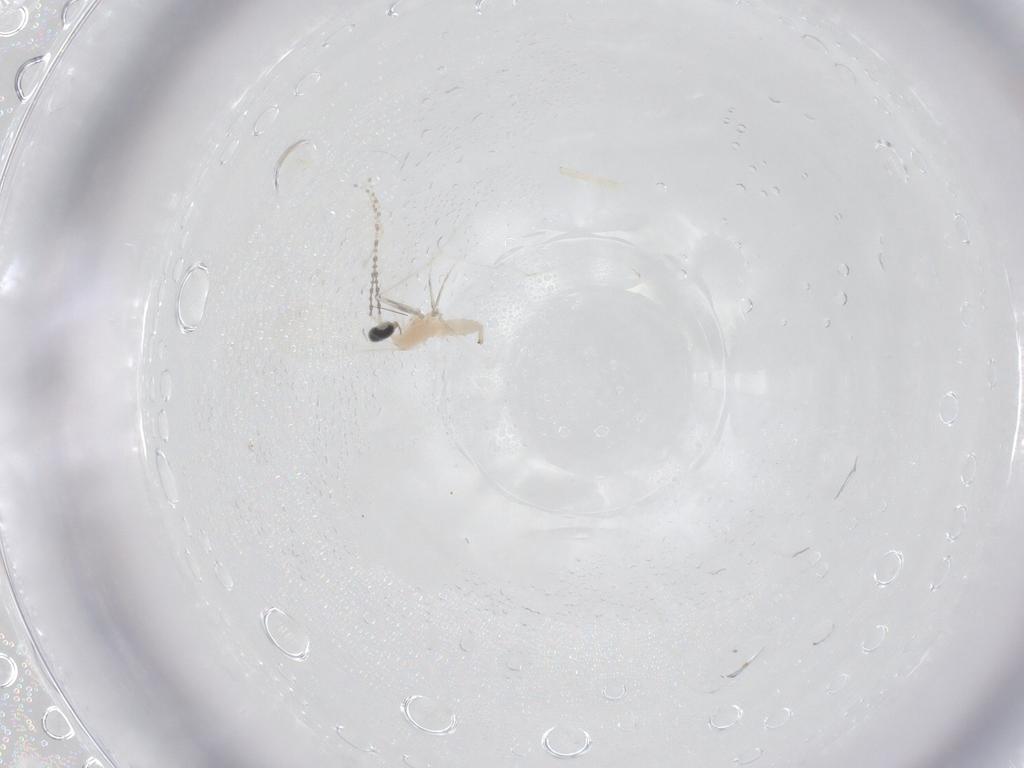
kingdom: Animalia
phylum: Arthropoda
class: Insecta
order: Diptera
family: Cecidomyiidae
